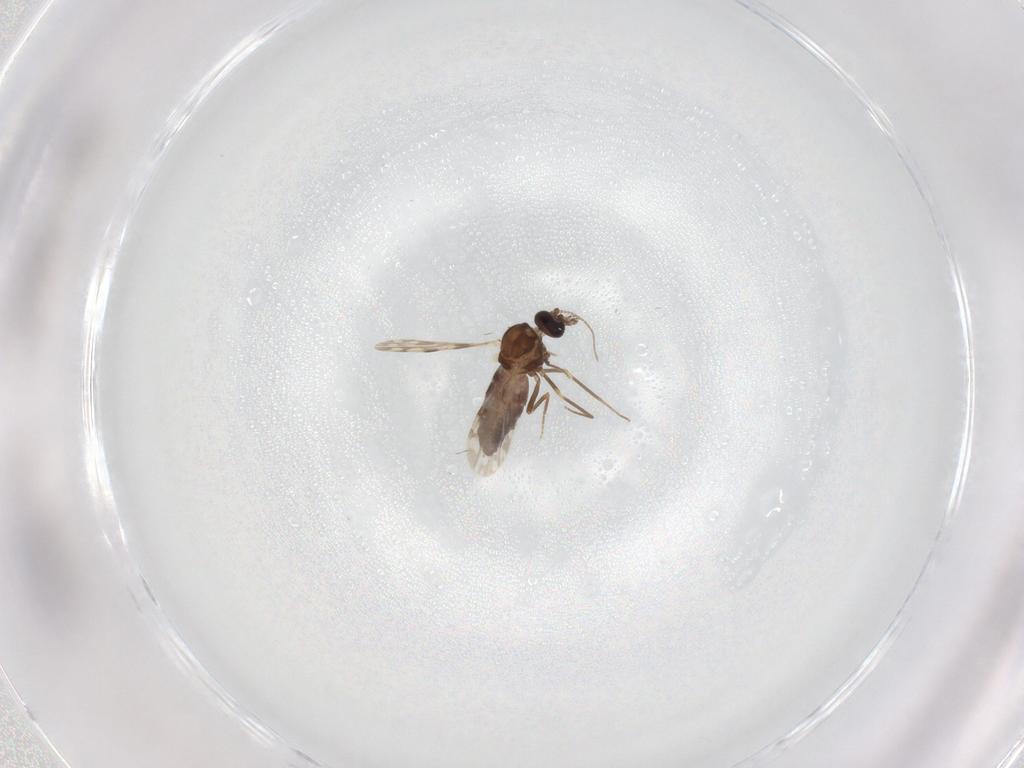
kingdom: Animalia
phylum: Arthropoda
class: Insecta
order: Diptera
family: Ceratopogonidae
